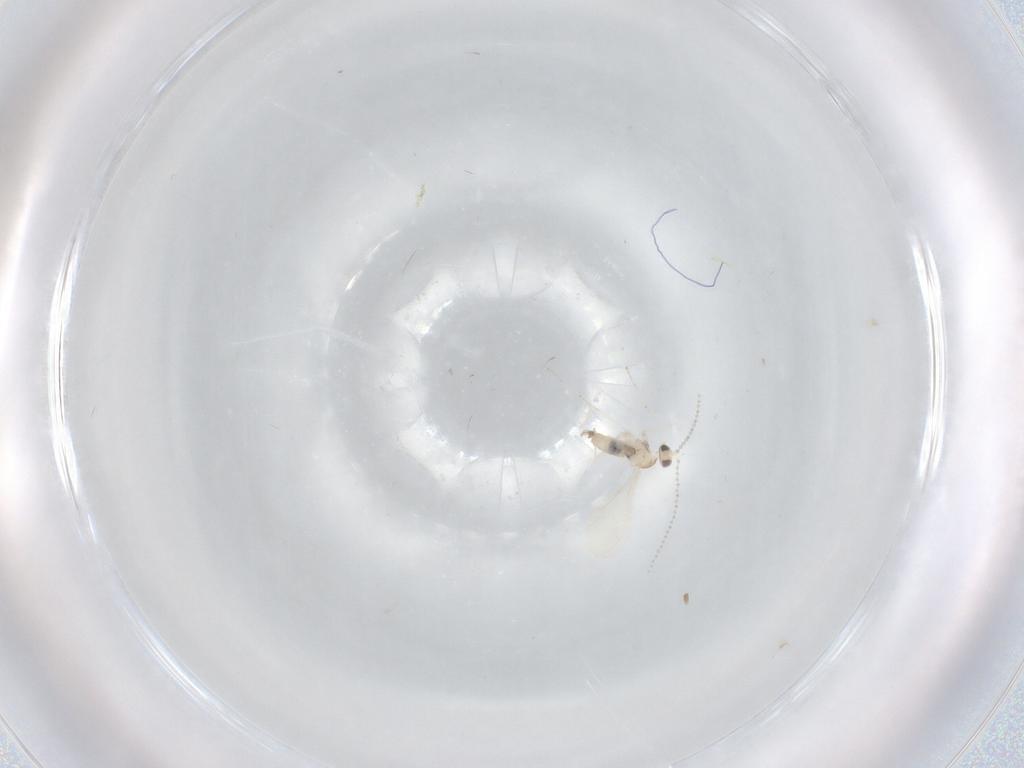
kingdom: Animalia
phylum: Arthropoda
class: Insecta
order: Diptera
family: Cecidomyiidae
